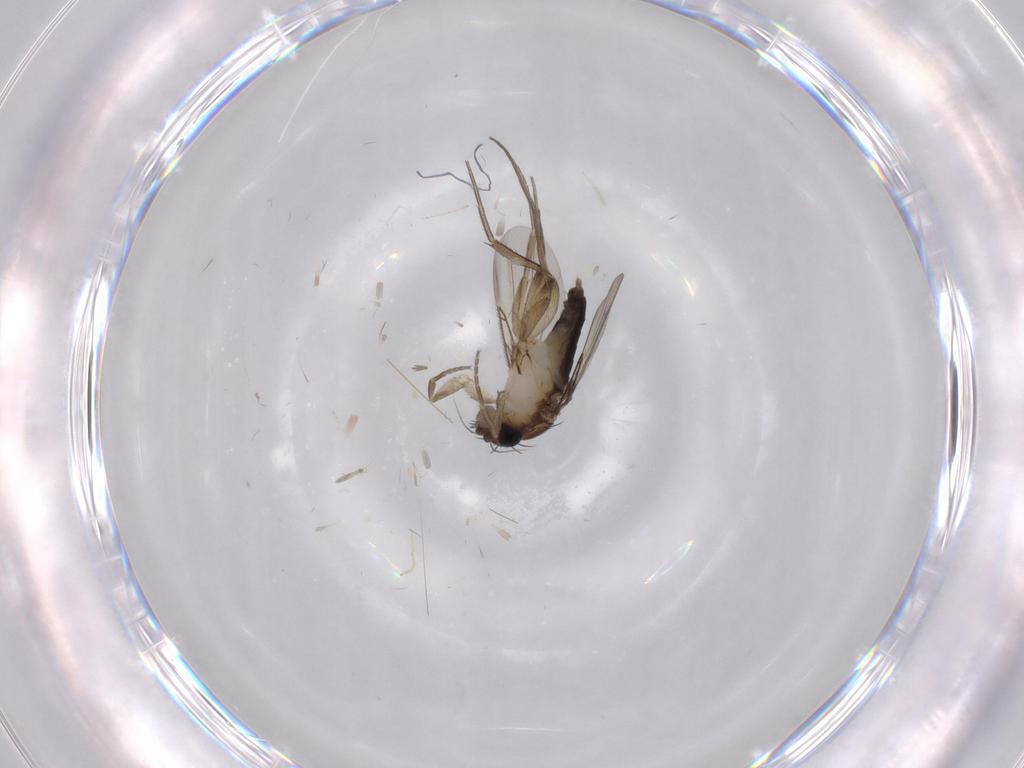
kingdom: Animalia
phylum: Arthropoda
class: Insecta
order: Diptera
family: Phoridae
